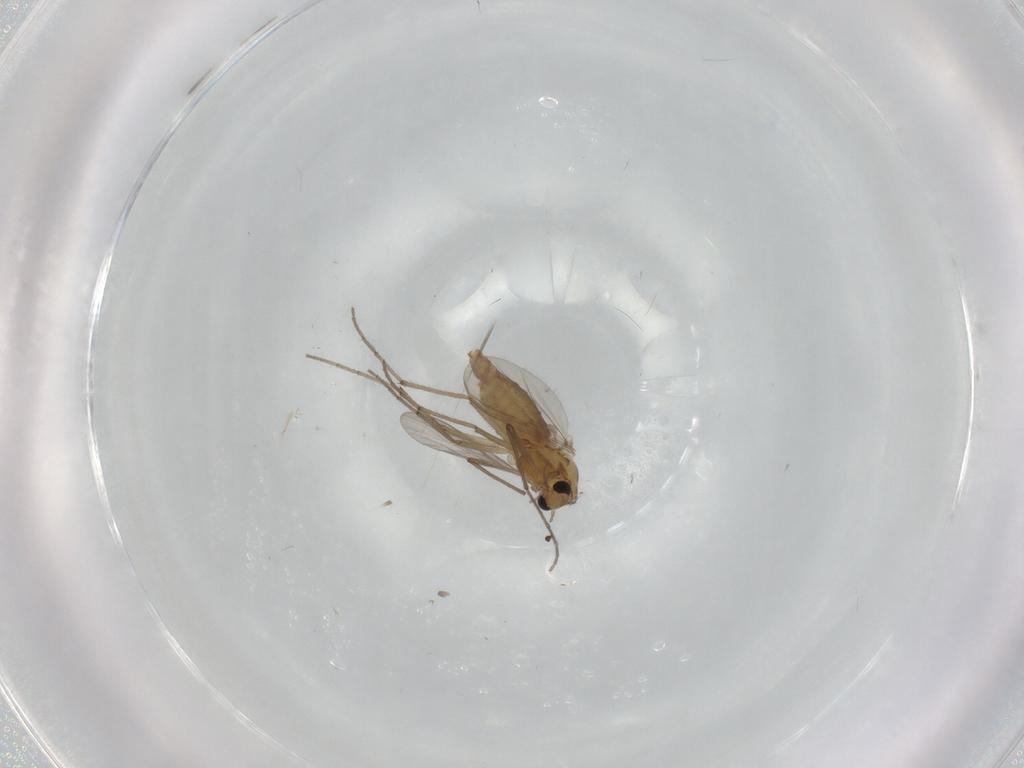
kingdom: Animalia
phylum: Arthropoda
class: Insecta
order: Diptera
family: Chironomidae
